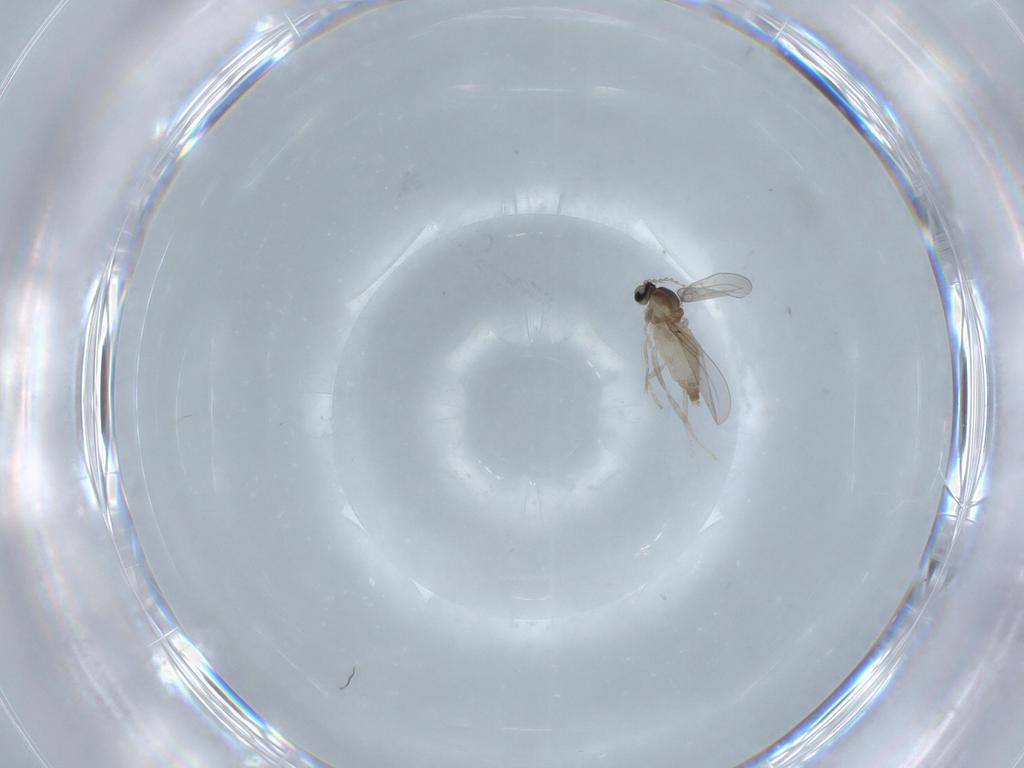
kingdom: Animalia
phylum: Arthropoda
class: Insecta
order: Diptera
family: Cecidomyiidae
